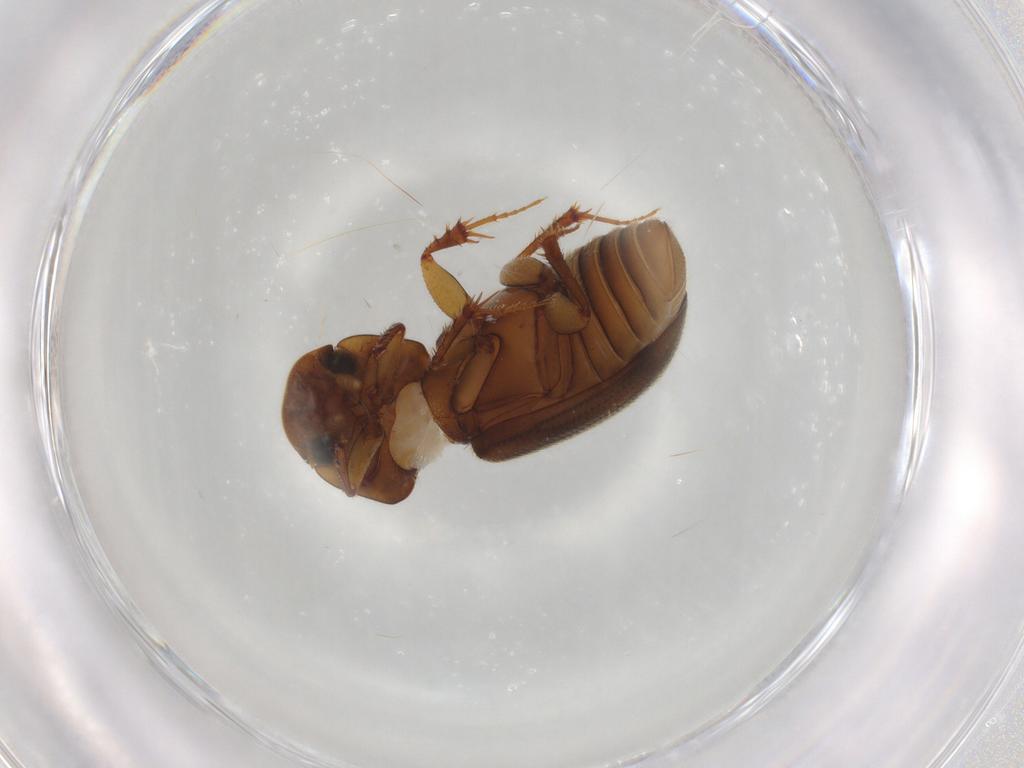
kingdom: Animalia
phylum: Arthropoda
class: Insecta
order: Coleoptera
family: Scarabaeidae
